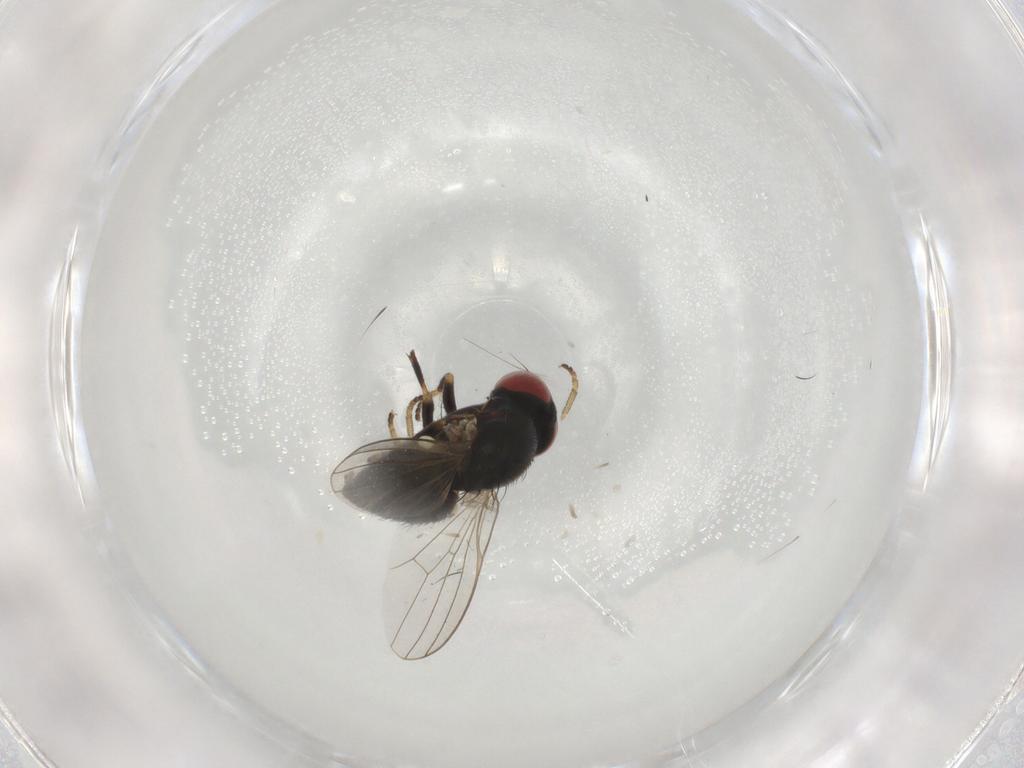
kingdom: Animalia
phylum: Arthropoda
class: Insecta
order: Diptera
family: Chamaemyiidae
